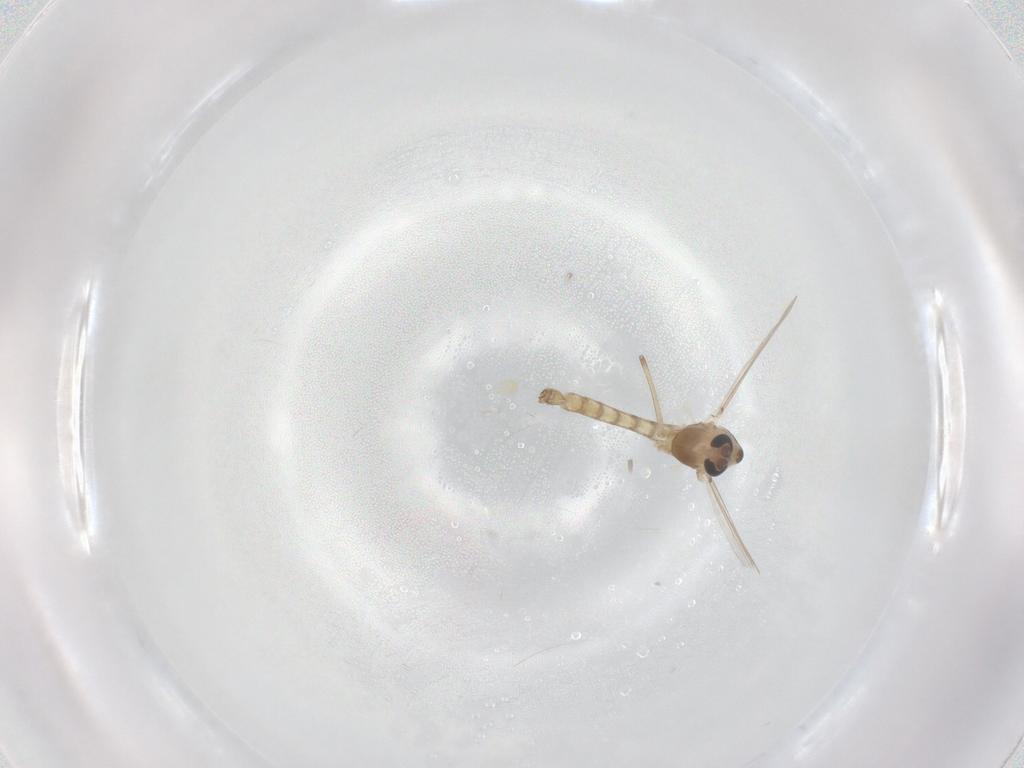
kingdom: Animalia
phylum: Arthropoda
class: Insecta
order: Diptera
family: Chironomidae
